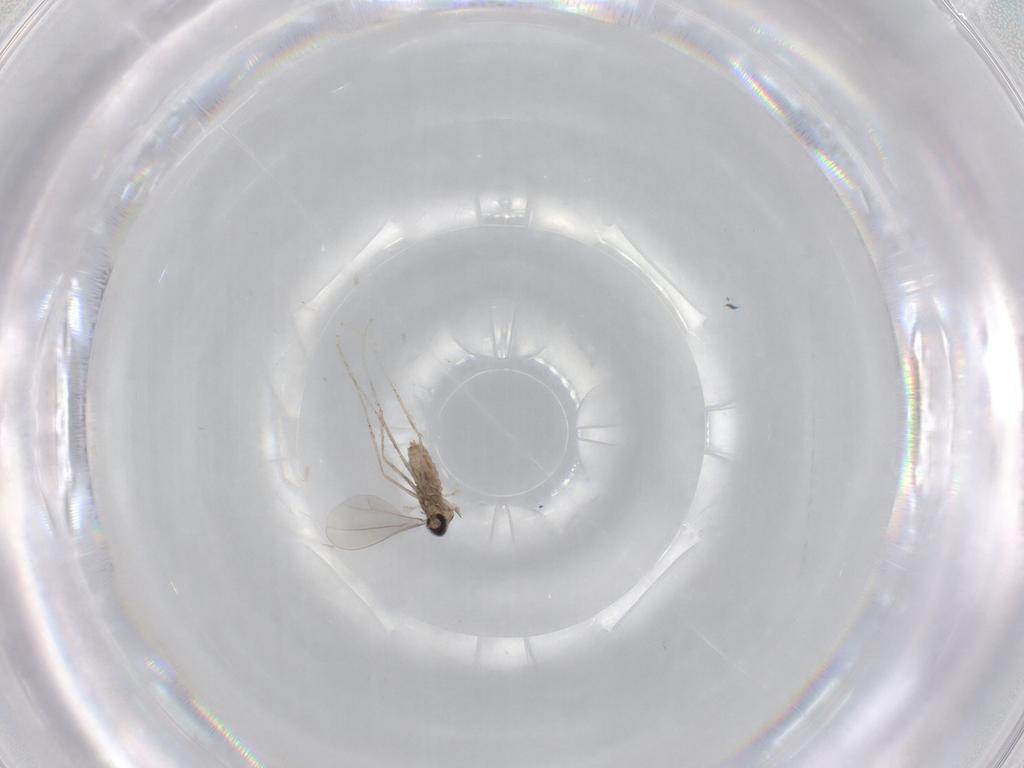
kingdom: Animalia
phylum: Arthropoda
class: Insecta
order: Diptera
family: Cecidomyiidae
